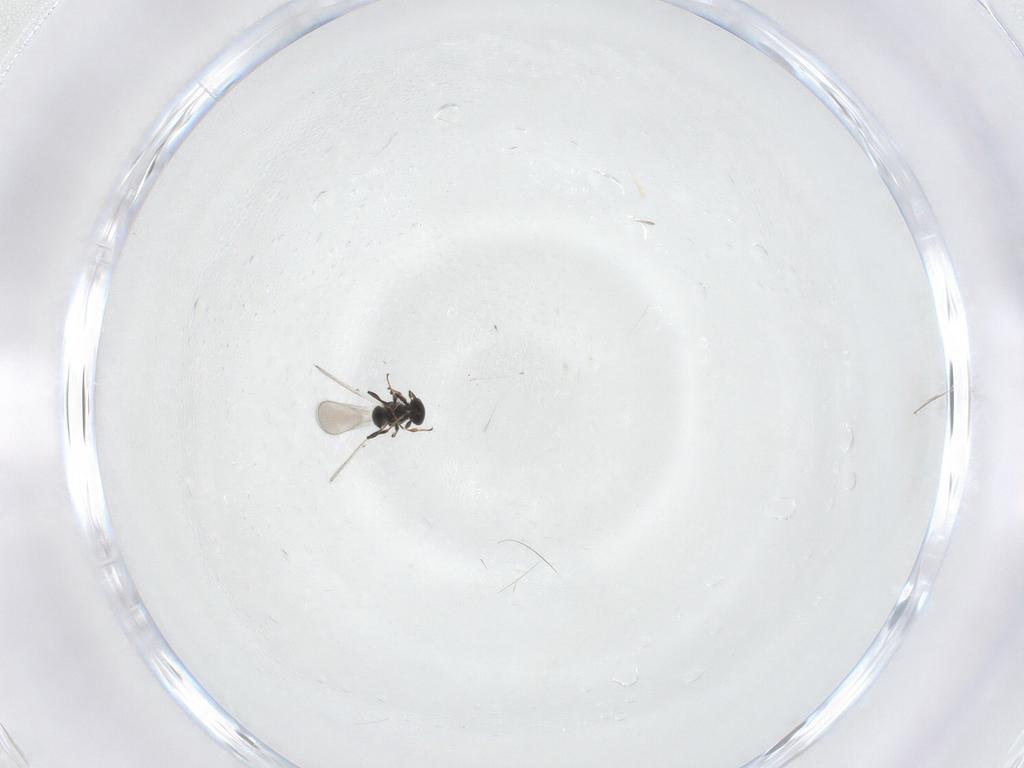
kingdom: Animalia
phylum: Arthropoda
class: Insecta
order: Hymenoptera
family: Platygastridae
